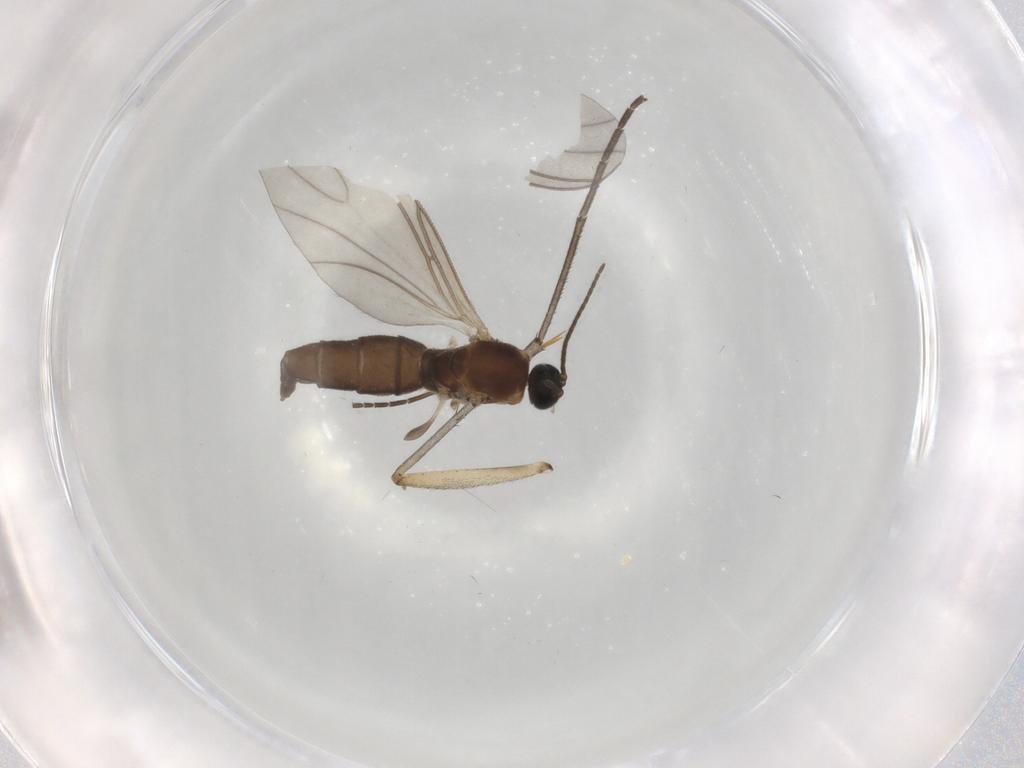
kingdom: Animalia
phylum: Arthropoda
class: Insecta
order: Diptera
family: Sciaridae
